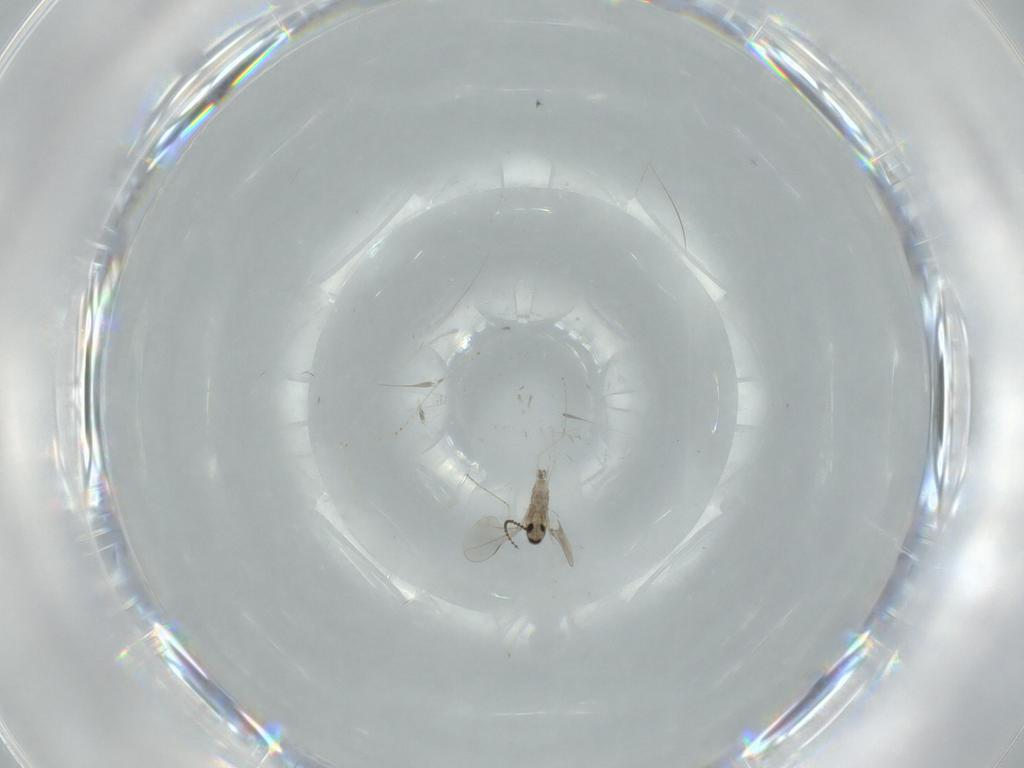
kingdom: Animalia
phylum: Arthropoda
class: Insecta
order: Diptera
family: Cecidomyiidae
